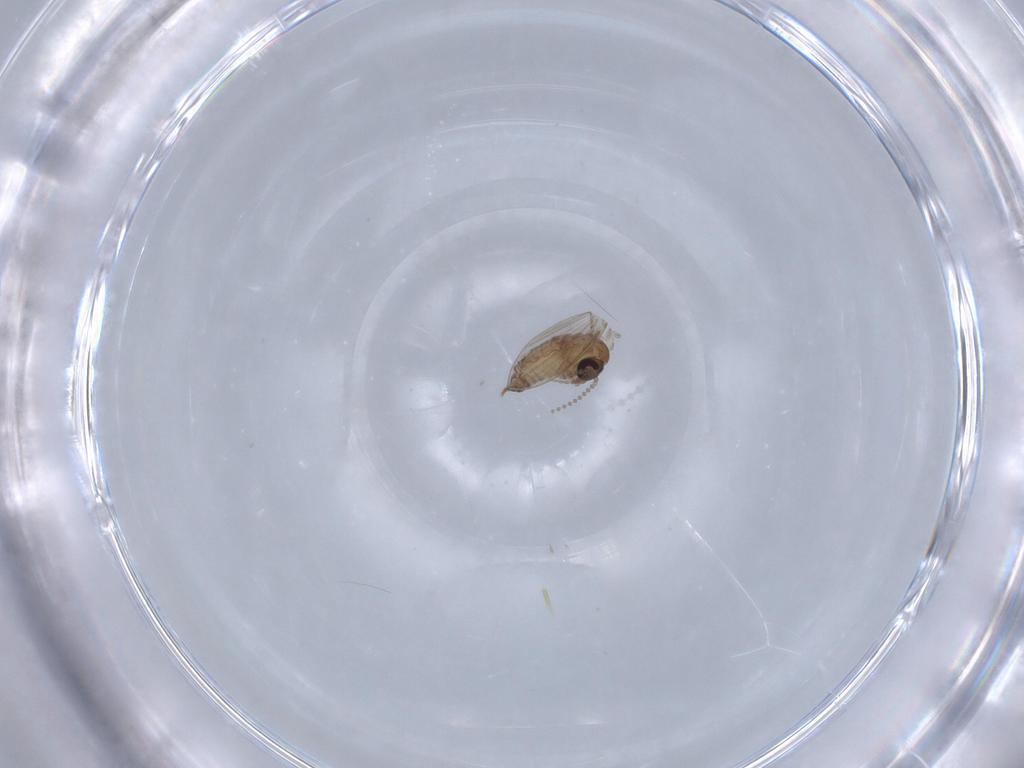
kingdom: Animalia
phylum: Arthropoda
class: Insecta
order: Diptera
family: Psychodidae
